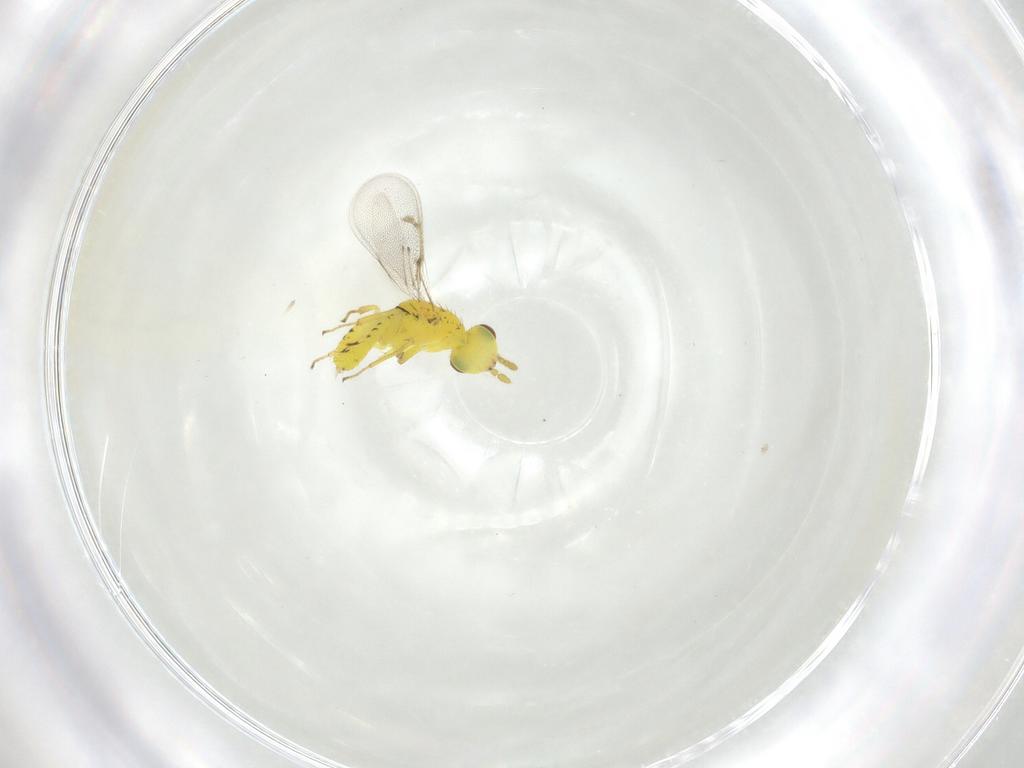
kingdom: Animalia
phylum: Arthropoda
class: Insecta
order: Hymenoptera
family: Eulophidae
